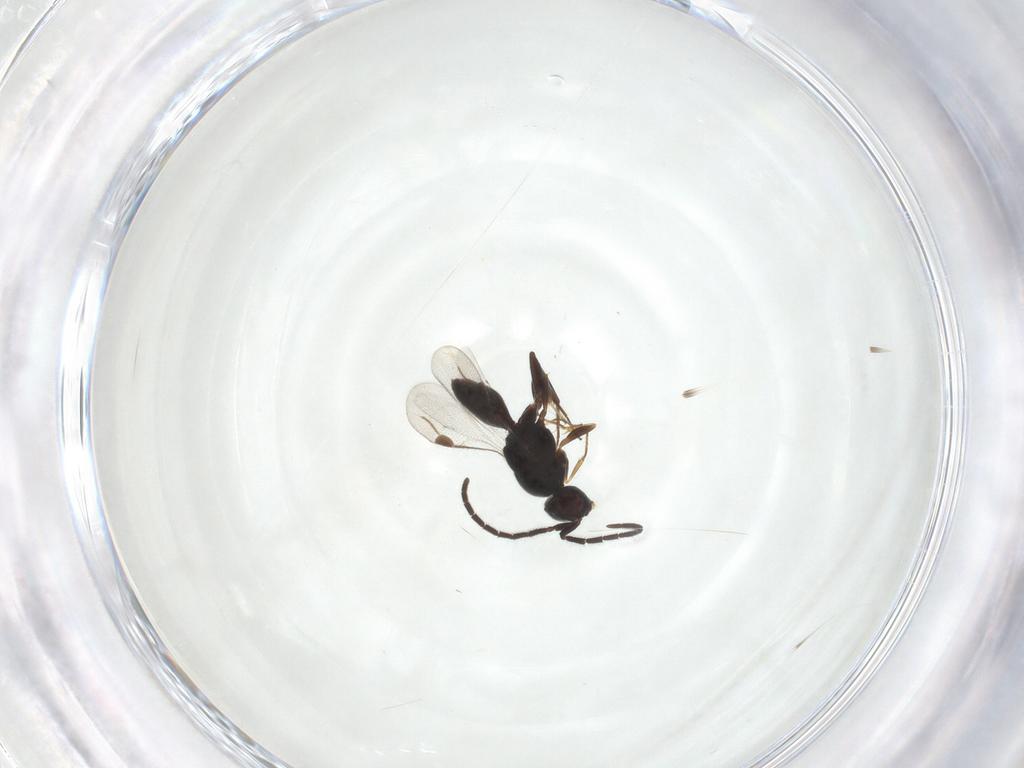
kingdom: Animalia
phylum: Arthropoda
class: Insecta
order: Hymenoptera
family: Megaspilidae
